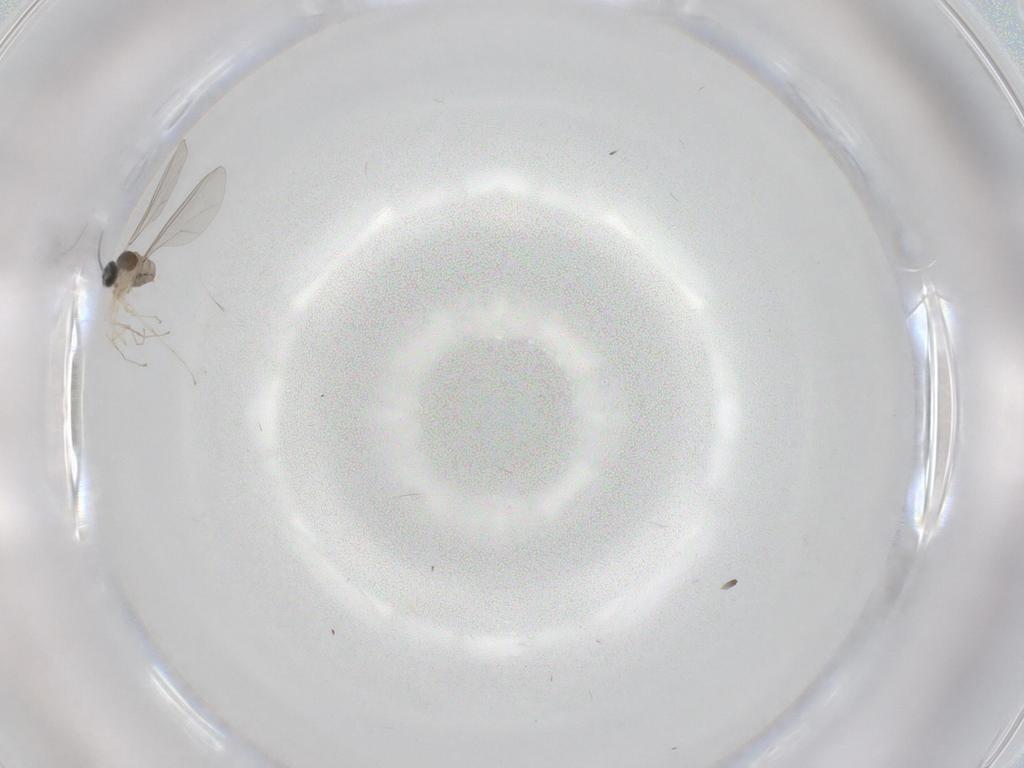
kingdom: Animalia
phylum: Arthropoda
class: Insecta
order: Diptera
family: Cecidomyiidae
